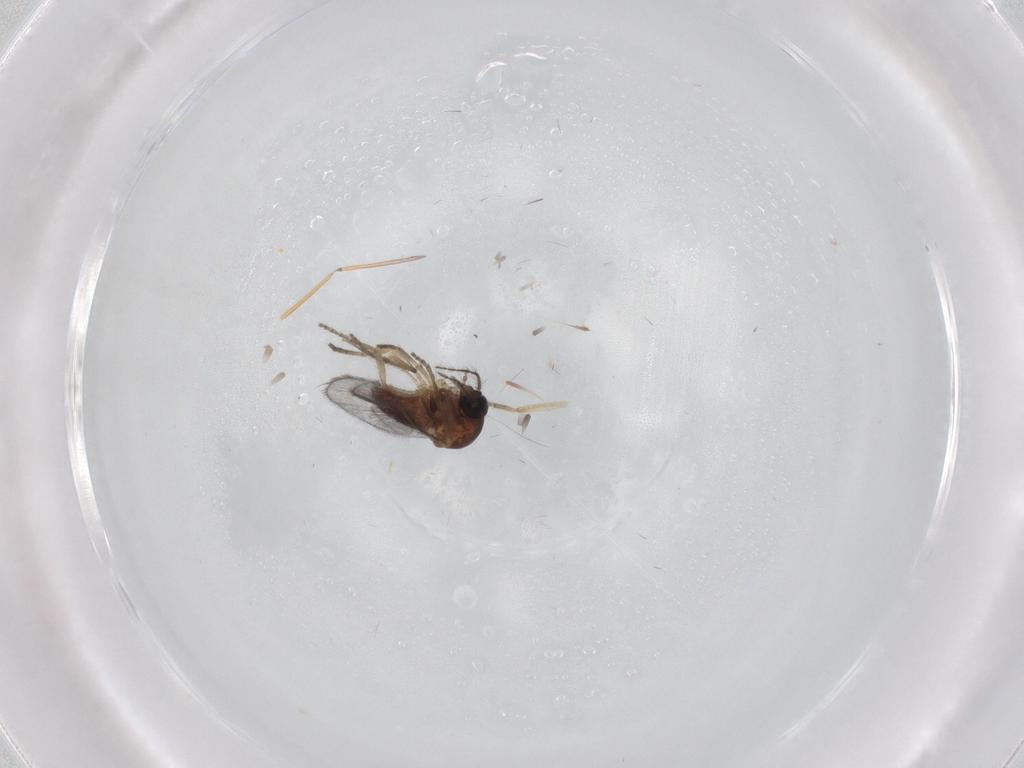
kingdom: Animalia
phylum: Arthropoda
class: Insecta
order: Diptera
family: Ceratopogonidae
